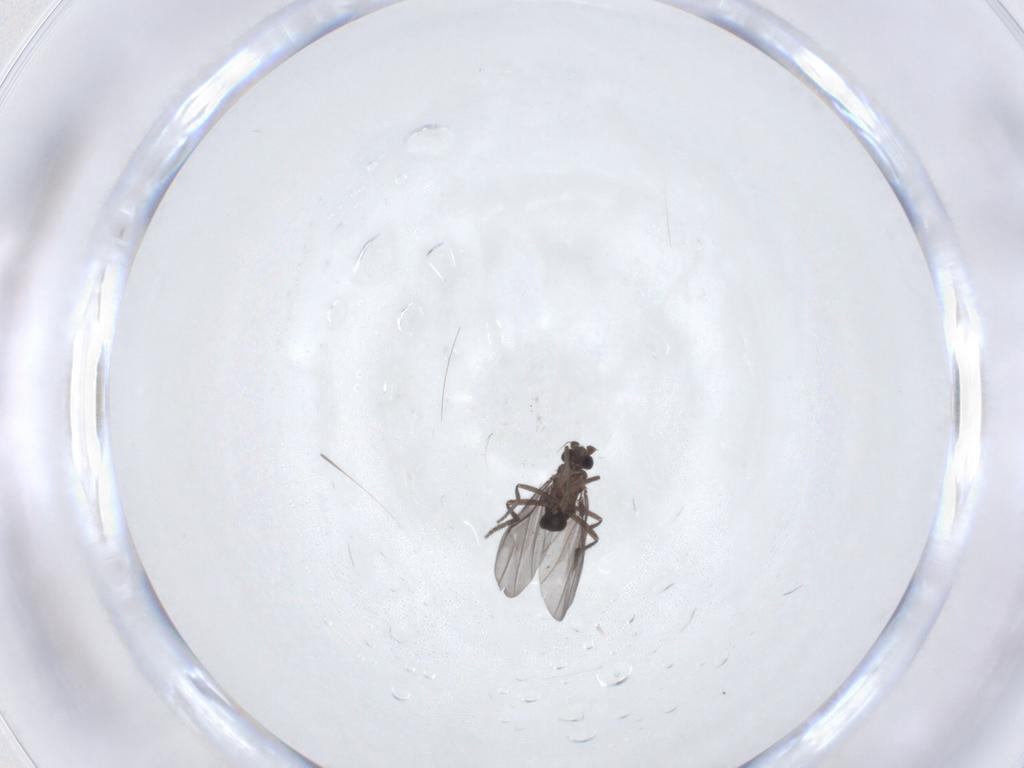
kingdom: Animalia
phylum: Arthropoda
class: Insecta
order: Diptera
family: Phoridae
